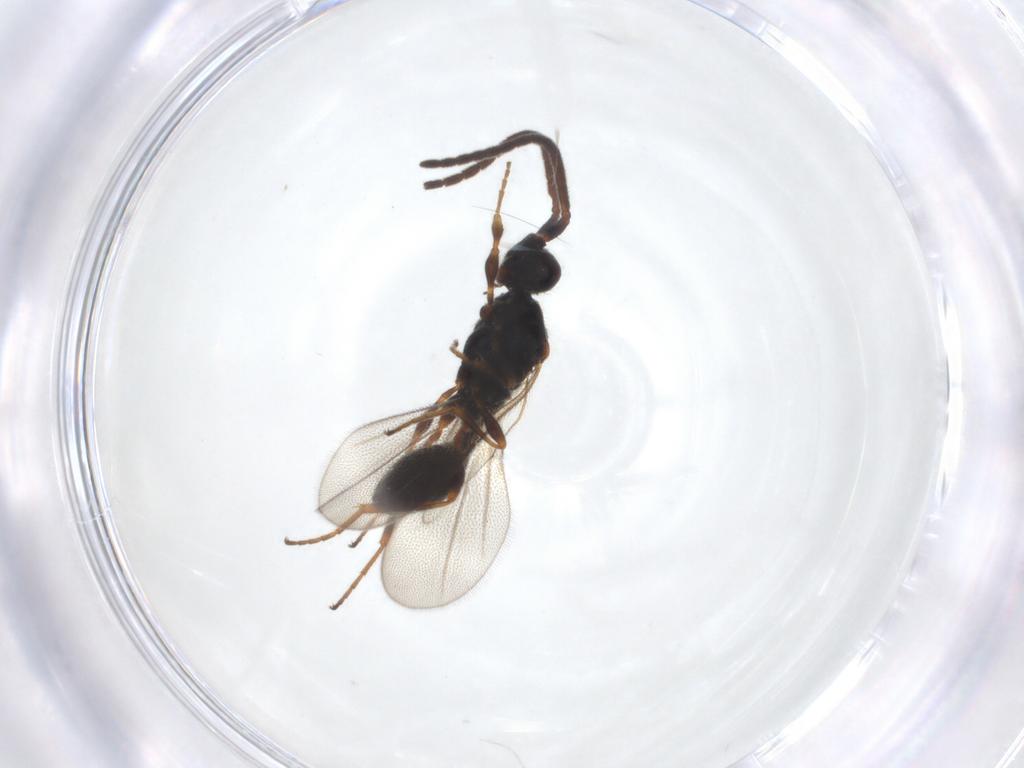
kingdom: Animalia
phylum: Arthropoda
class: Insecta
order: Hymenoptera
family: Diapriidae
